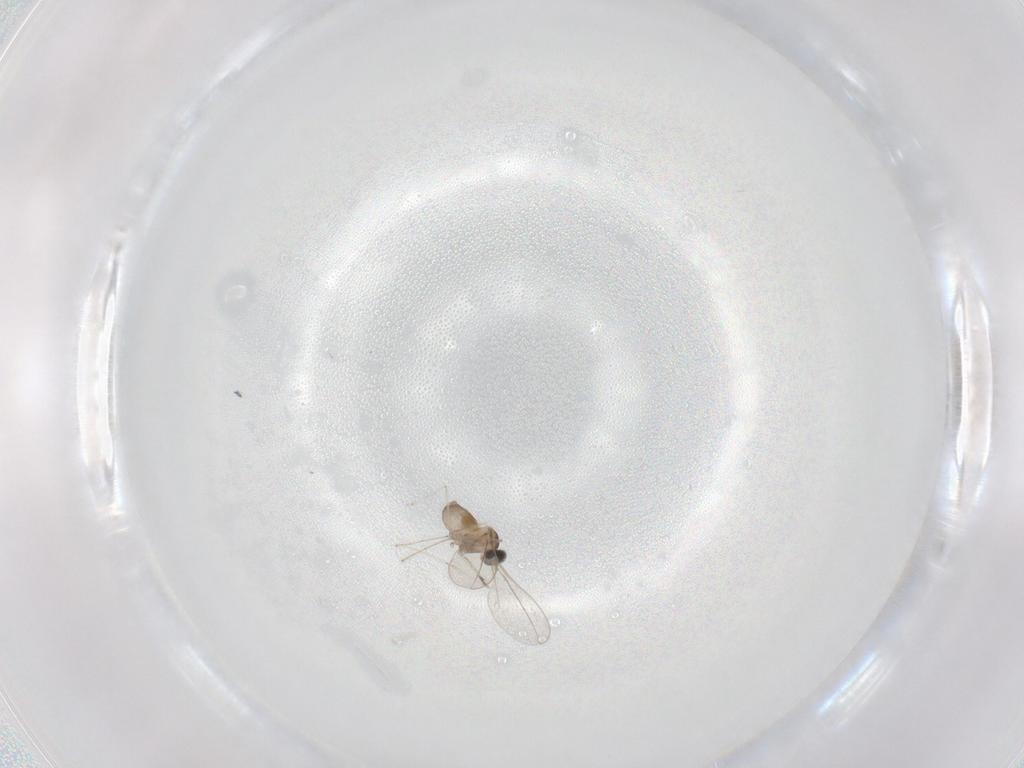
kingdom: Animalia
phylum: Arthropoda
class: Insecta
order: Diptera
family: Cecidomyiidae
